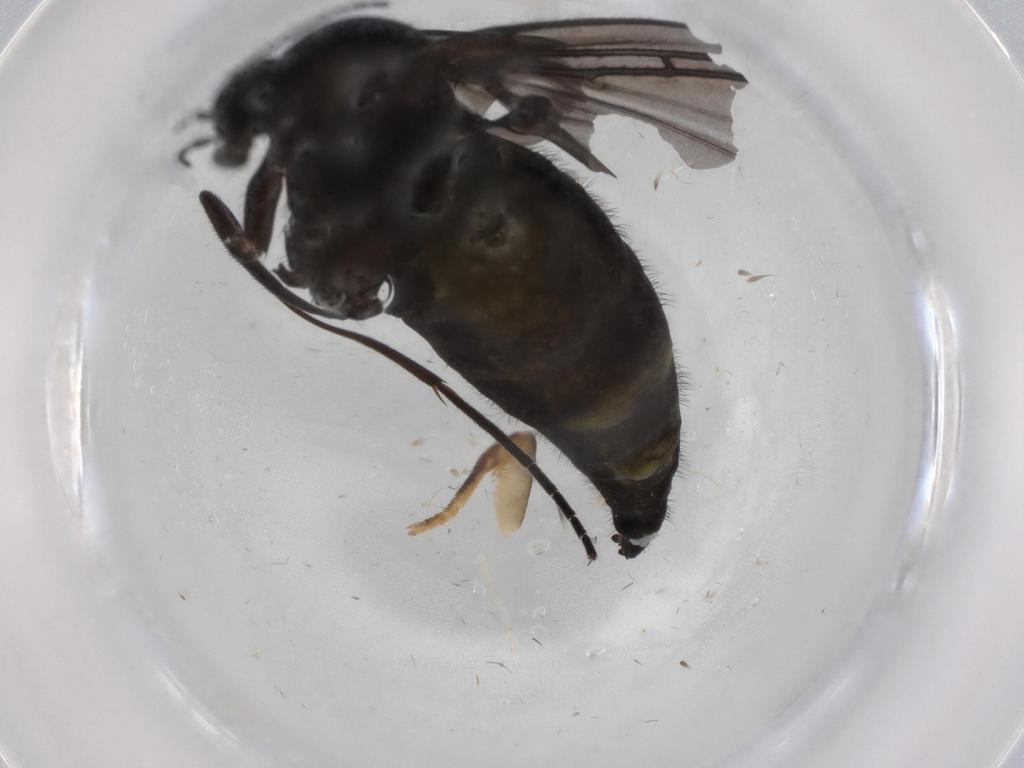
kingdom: Animalia
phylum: Arthropoda
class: Insecta
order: Diptera
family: Sciaridae
